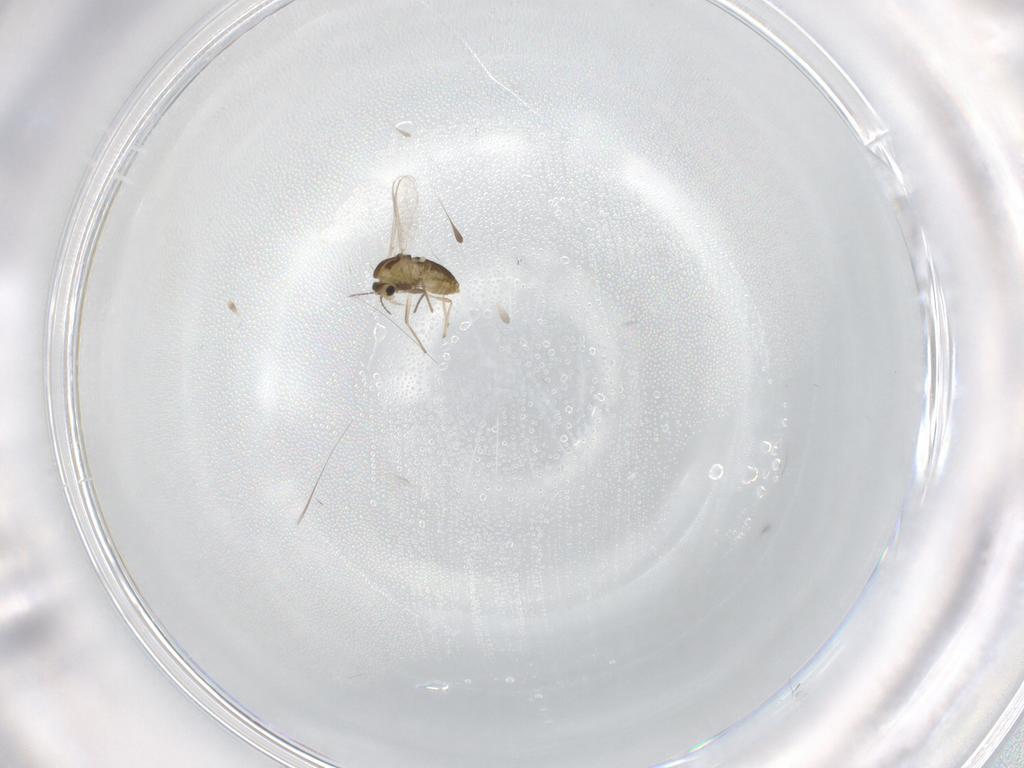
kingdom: Animalia
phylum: Arthropoda
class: Insecta
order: Diptera
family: Chironomidae
